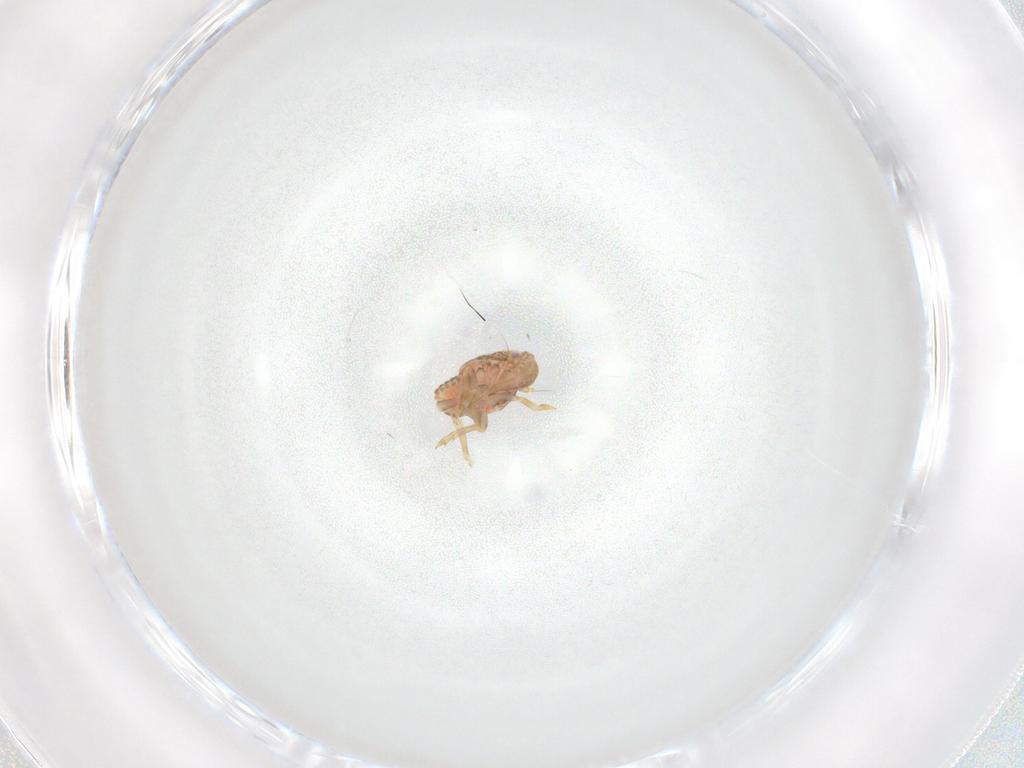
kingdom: Animalia
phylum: Arthropoda
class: Insecta
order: Hemiptera
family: Flatidae
